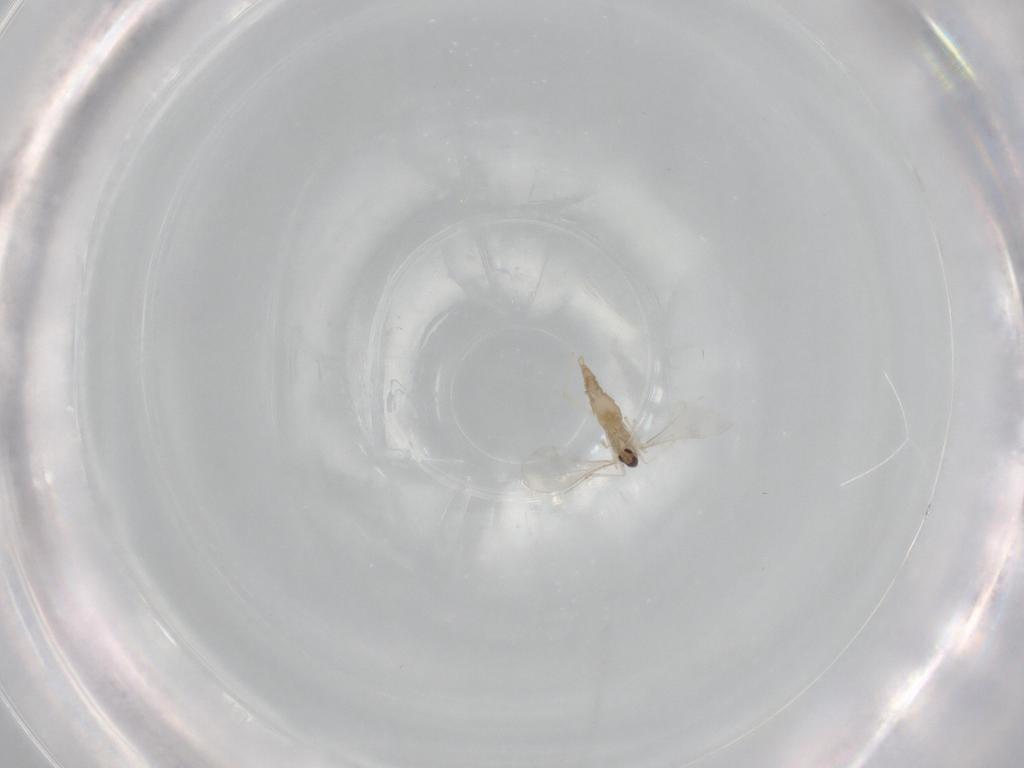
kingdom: Animalia
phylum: Arthropoda
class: Insecta
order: Diptera
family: Cecidomyiidae
